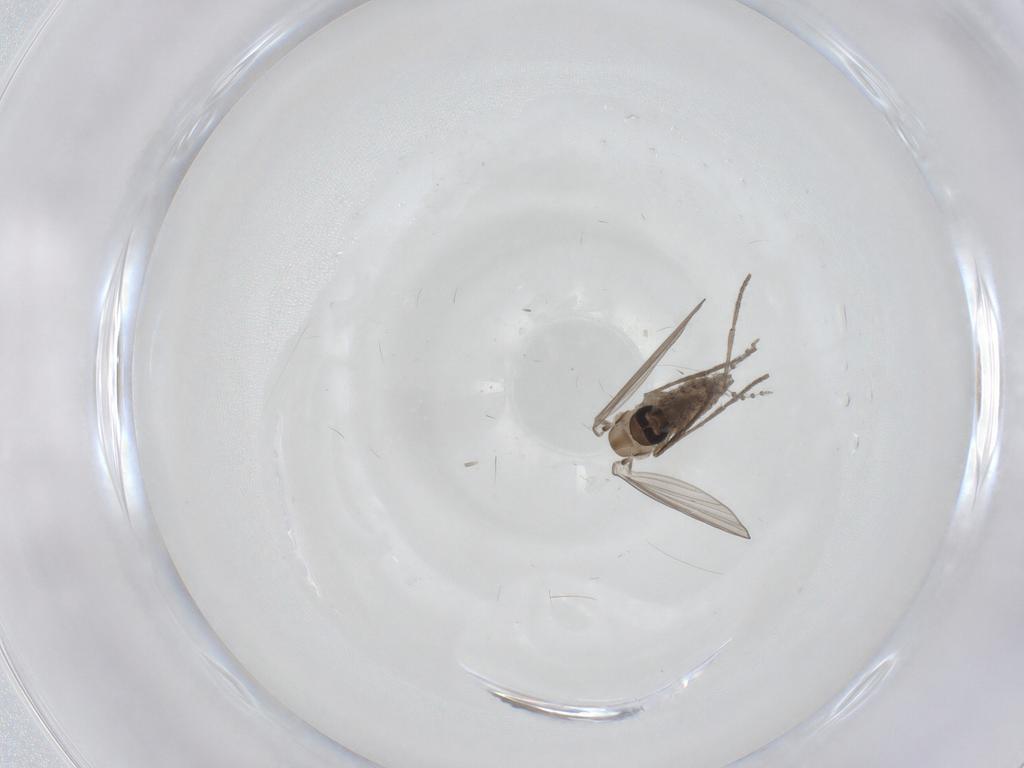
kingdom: Animalia
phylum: Arthropoda
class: Insecta
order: Diptera
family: Psychodidae
